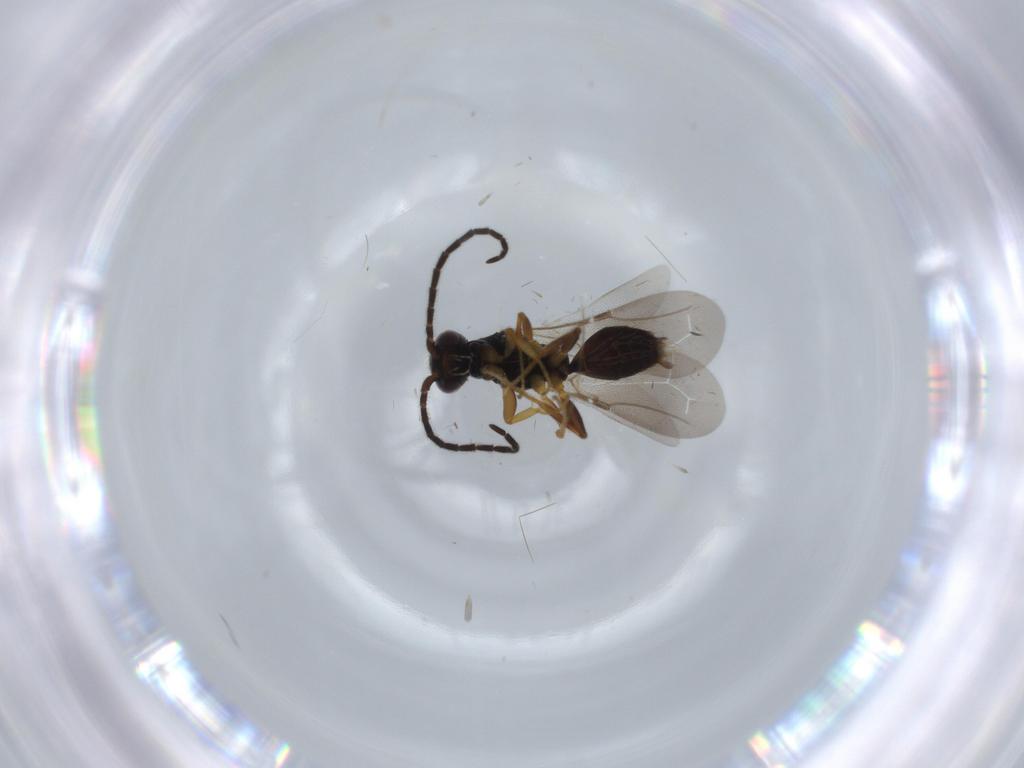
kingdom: Animalia
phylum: Arthropoda
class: Insecta
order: Hymenoptera
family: Bethylidae
